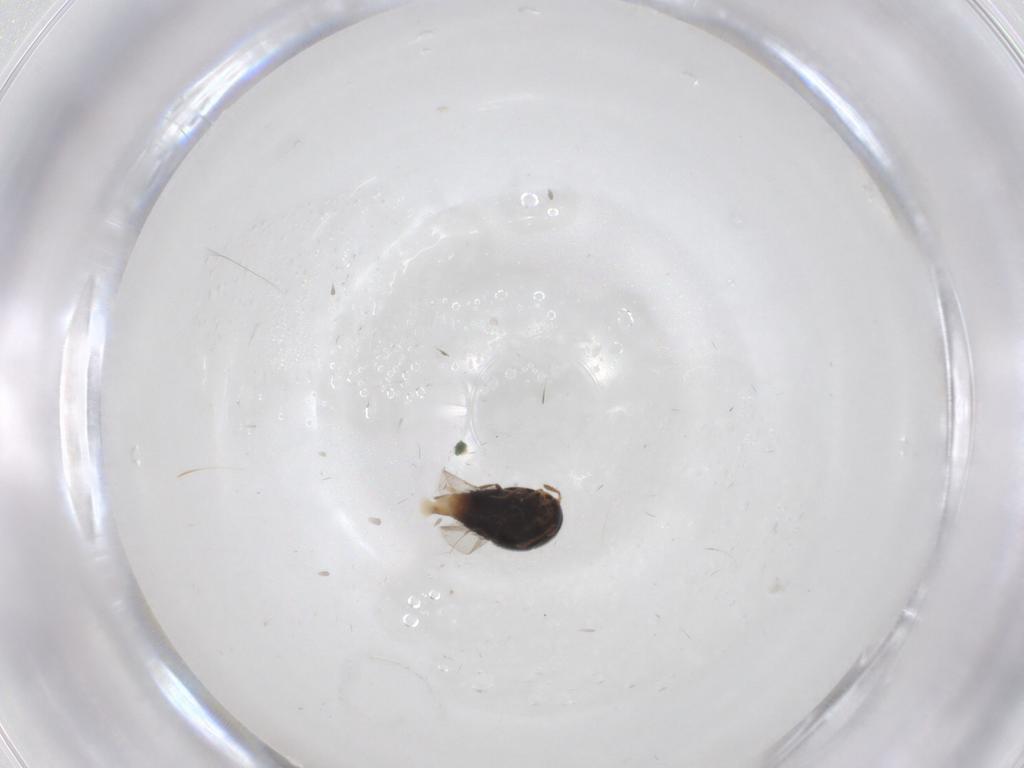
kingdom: Animalia
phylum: Arthropoda
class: Insecta
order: Coleoptera
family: Staphylinidae
